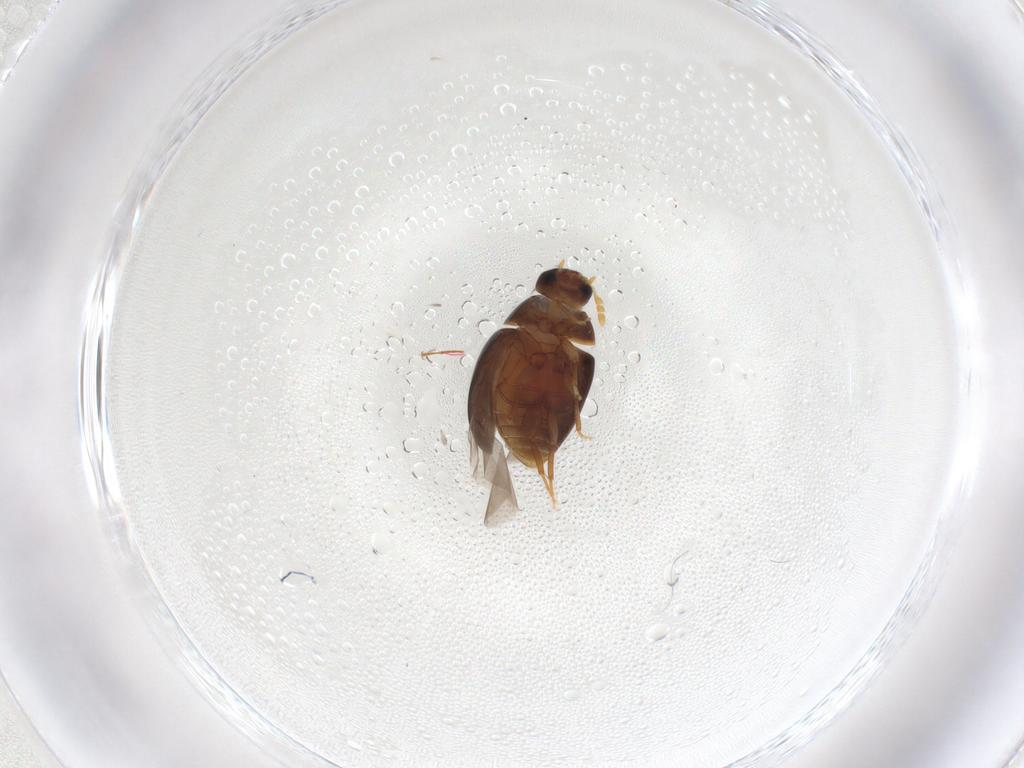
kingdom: Animalia
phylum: Arthropoda
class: Insecta
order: Coleoptera
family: Phalacridae
